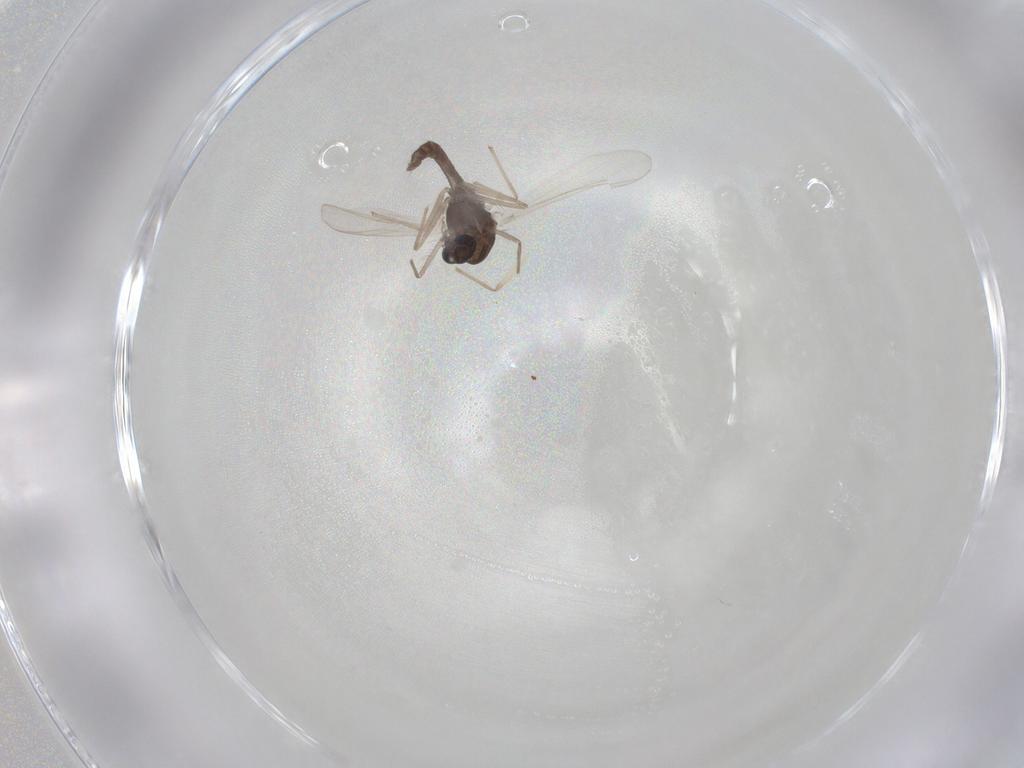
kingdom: Animalia
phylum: Arthropoda
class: Insecta
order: Diptera
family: Chironomidae
